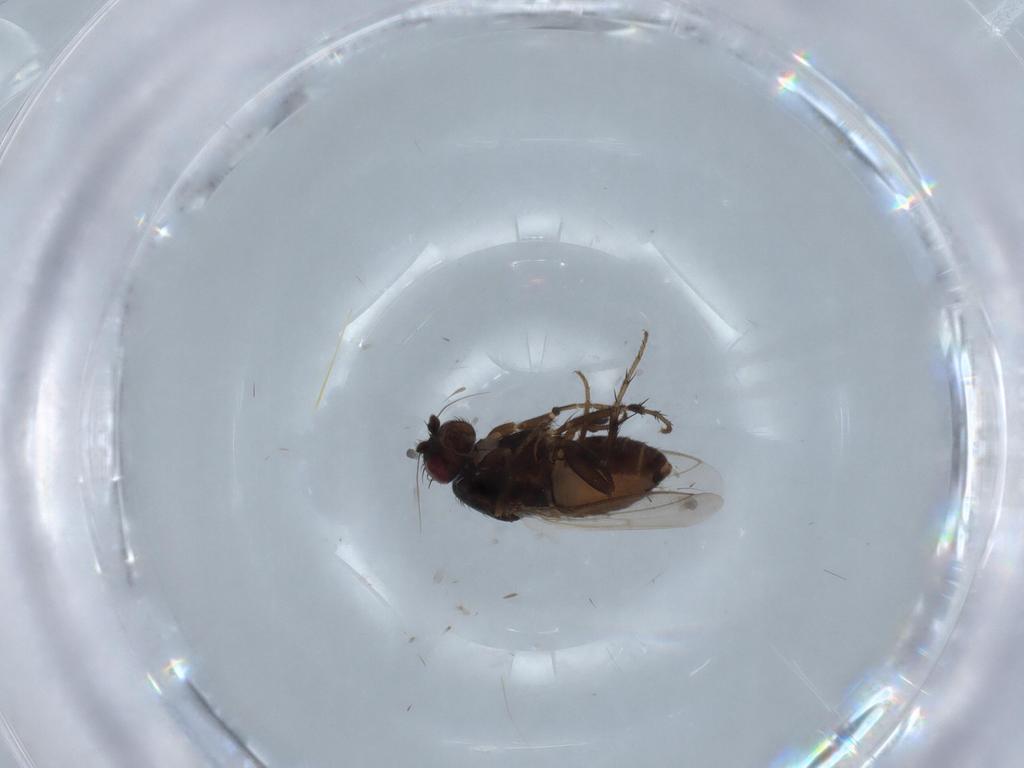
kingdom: Animalia
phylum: Arthropoda
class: Insecta
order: Diptera
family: Sphaeroceridae
